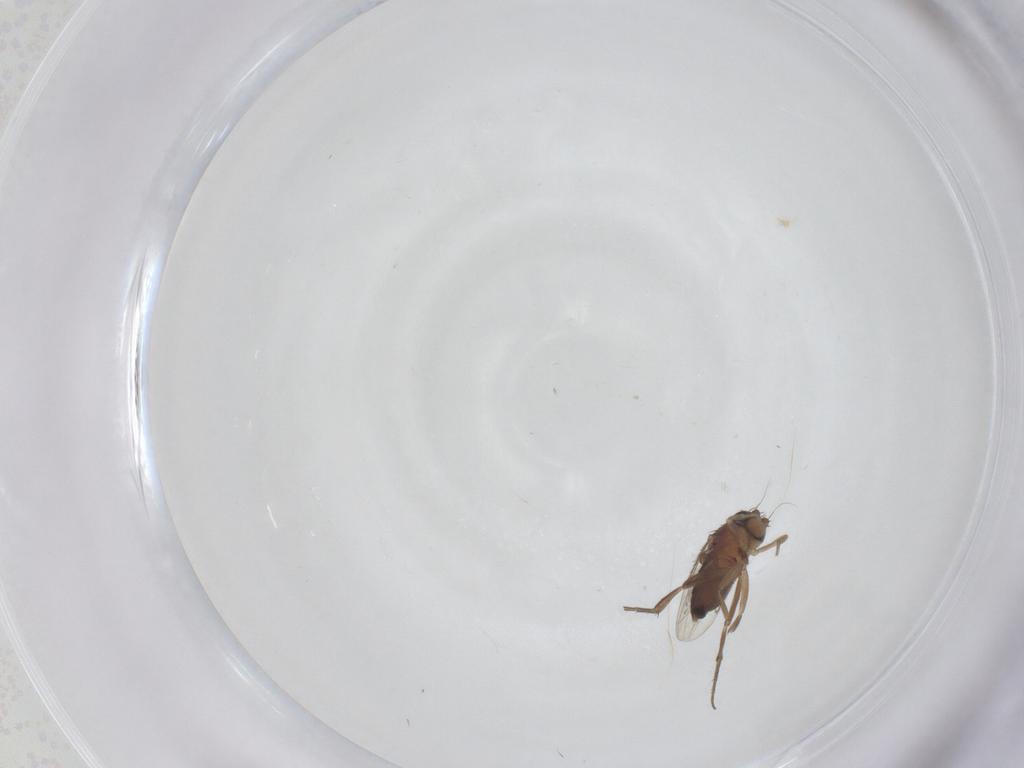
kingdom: Animalia
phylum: Arthropoda
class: Insecta
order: Diptera
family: Phoridae
